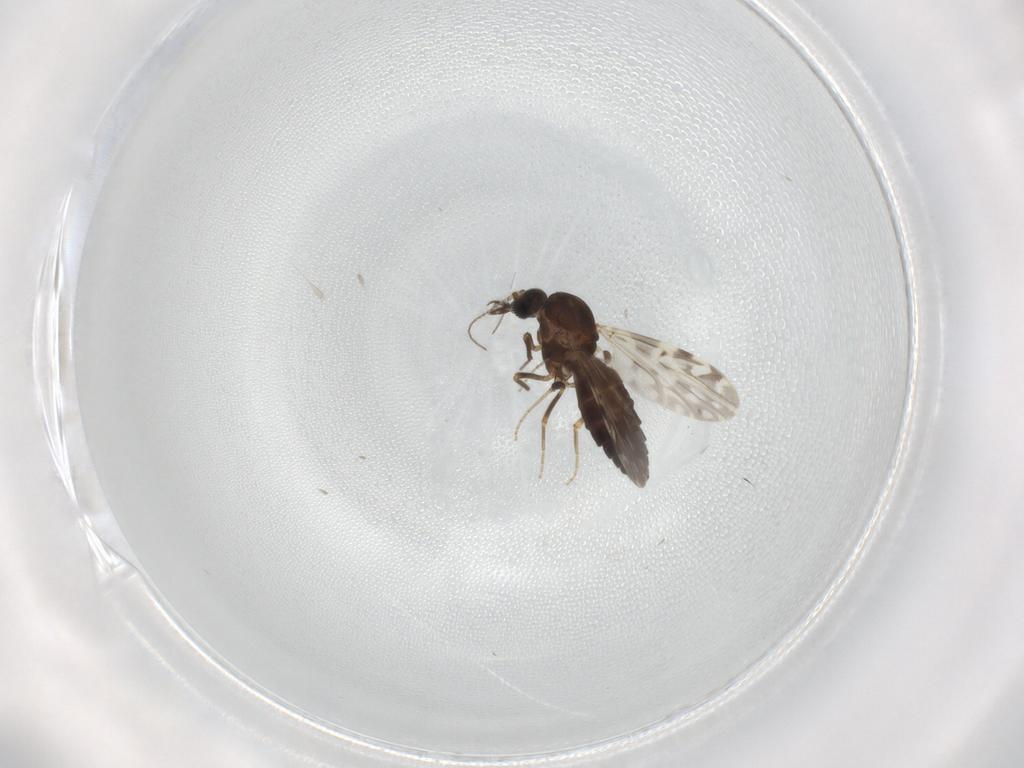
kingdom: Animalia
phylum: Arthropoda
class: Insecta
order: Diptera
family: Ceratopogonidae
